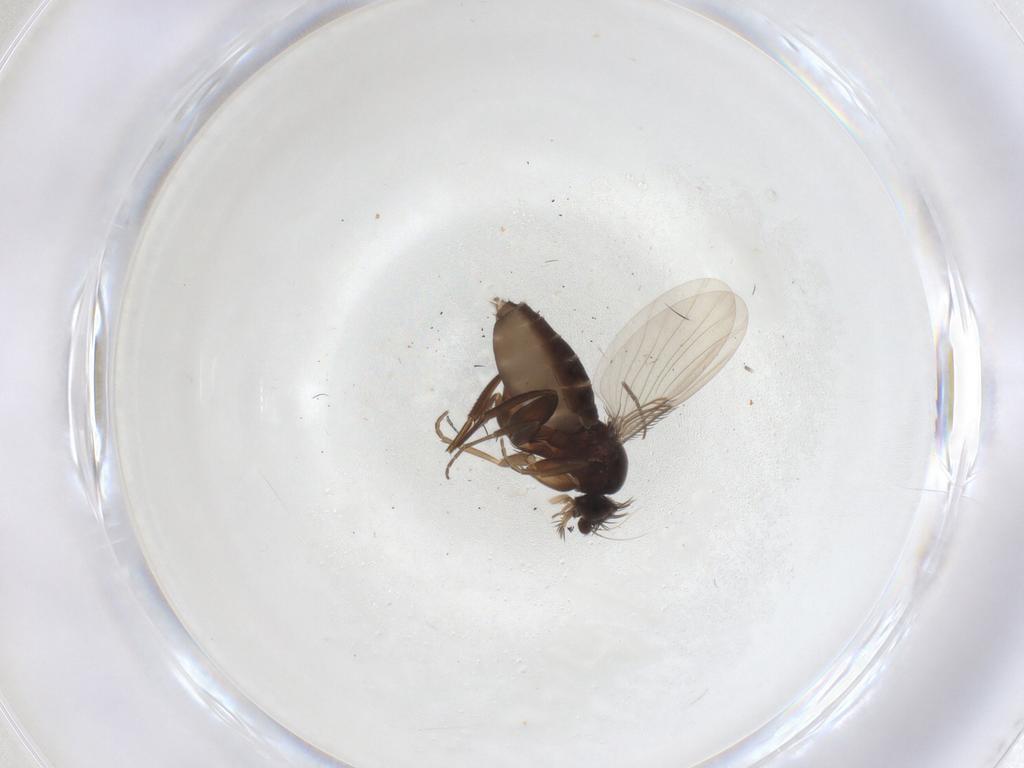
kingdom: Animalia
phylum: Arthropoda
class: Insecta
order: Diptera
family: Phoridae
